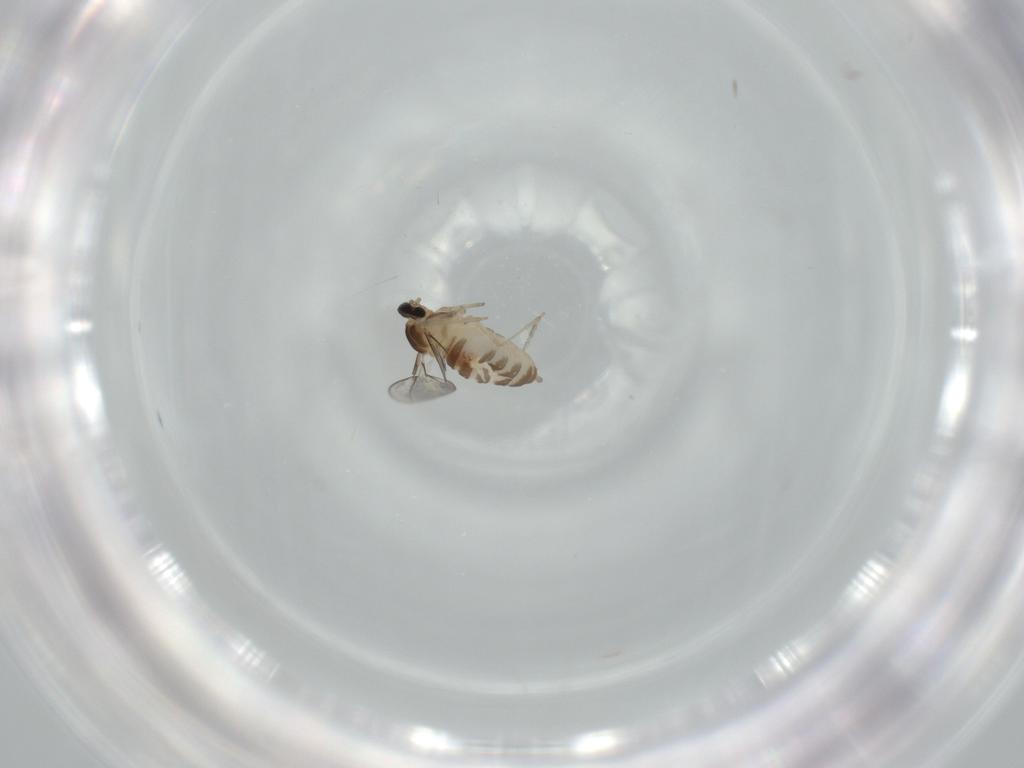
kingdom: Animalia
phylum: Arthropoda
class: Insecta
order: Diptera
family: Cecidomyiidae
